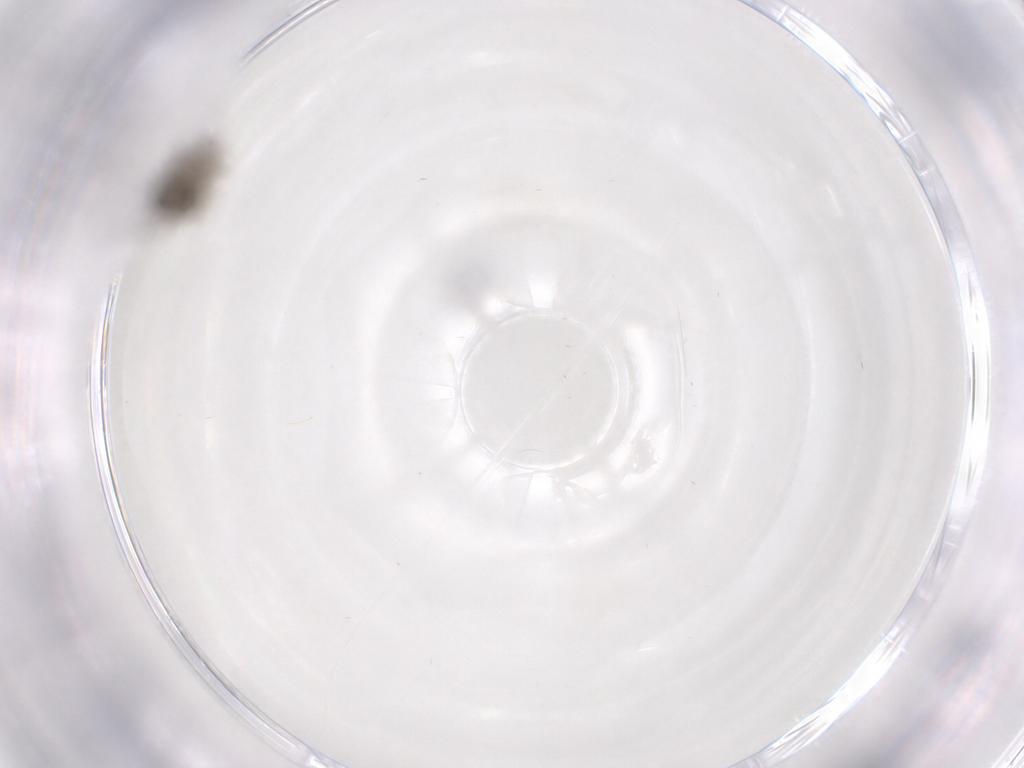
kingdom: Animalia
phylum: Arthropoda
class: Insecta
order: Diptera
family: Cecidomyiidae
